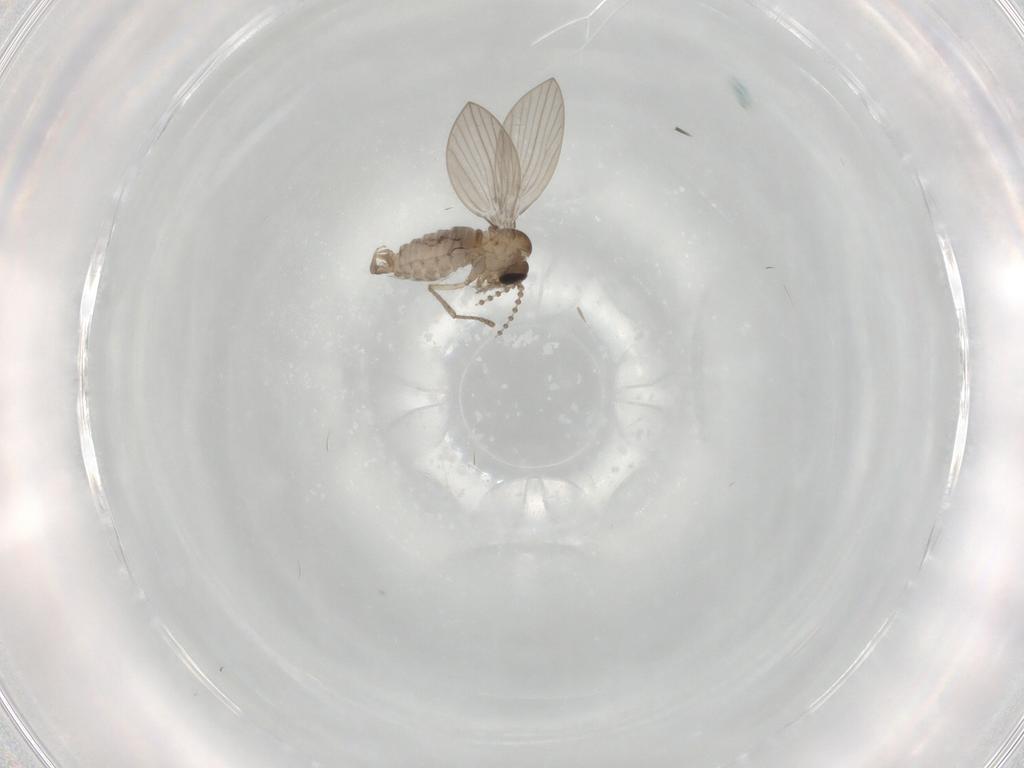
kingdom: Animalia
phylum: Arthropoda
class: Insecta
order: Diptera
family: Psychodidae
